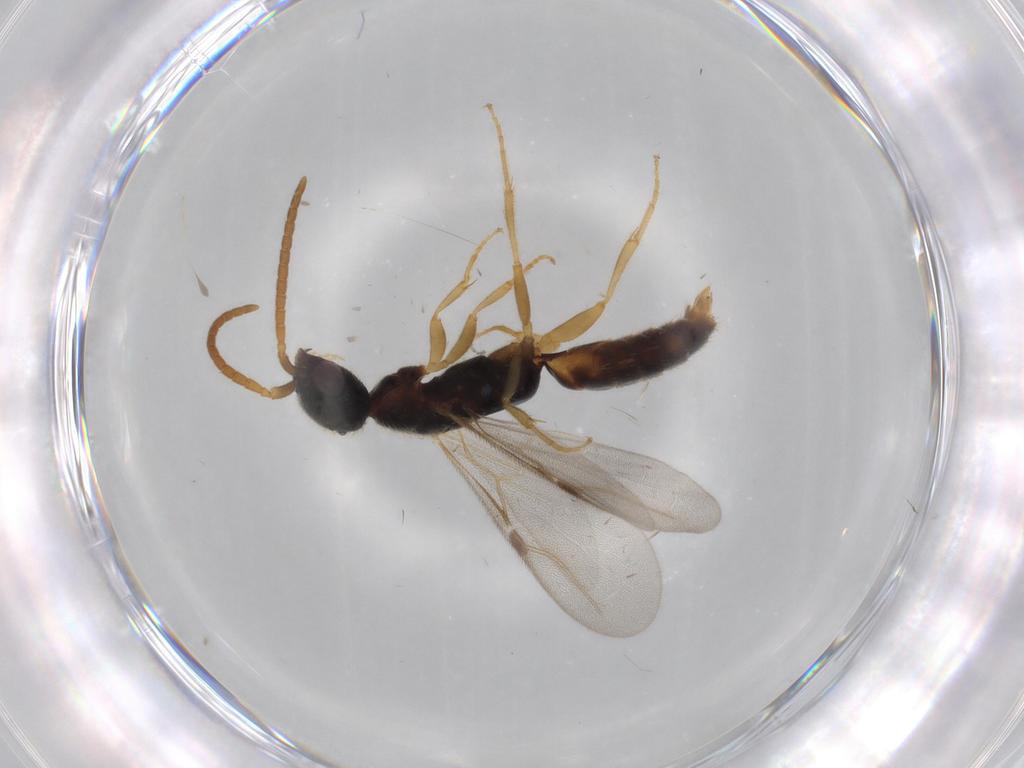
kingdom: Animalia
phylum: Arthropoda
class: Insecta
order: Hymenoptera
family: Bethylidae
